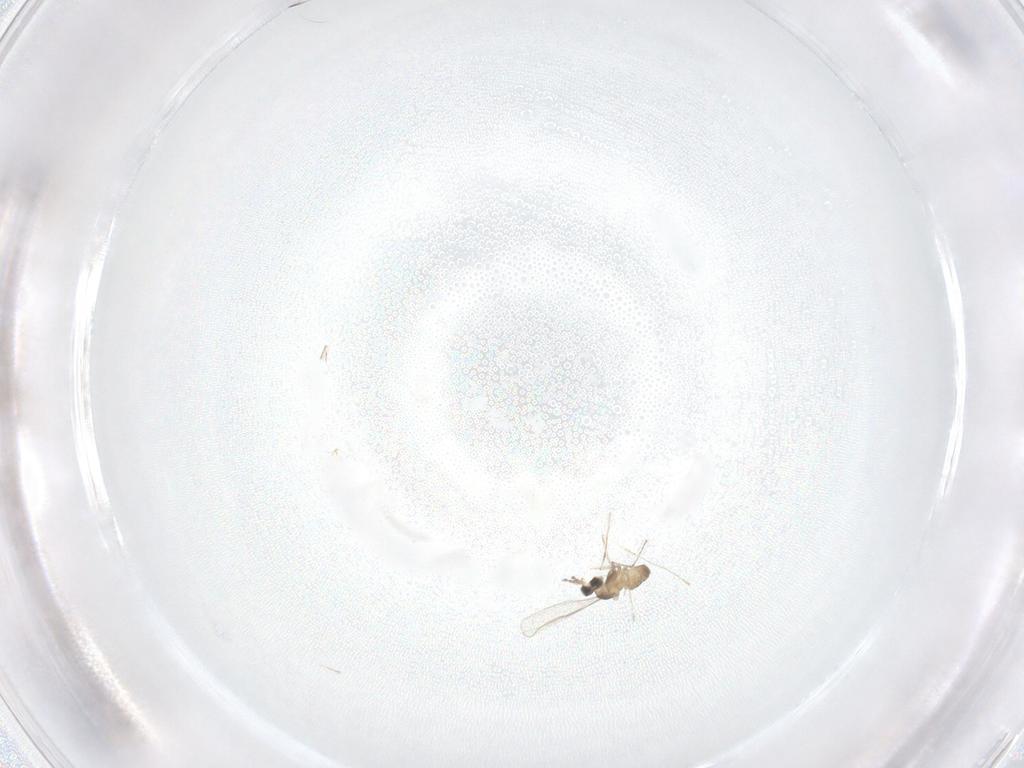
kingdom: Animalia
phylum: Arthropoda
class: Insecta
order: Diptera
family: Cecidomyiidae
